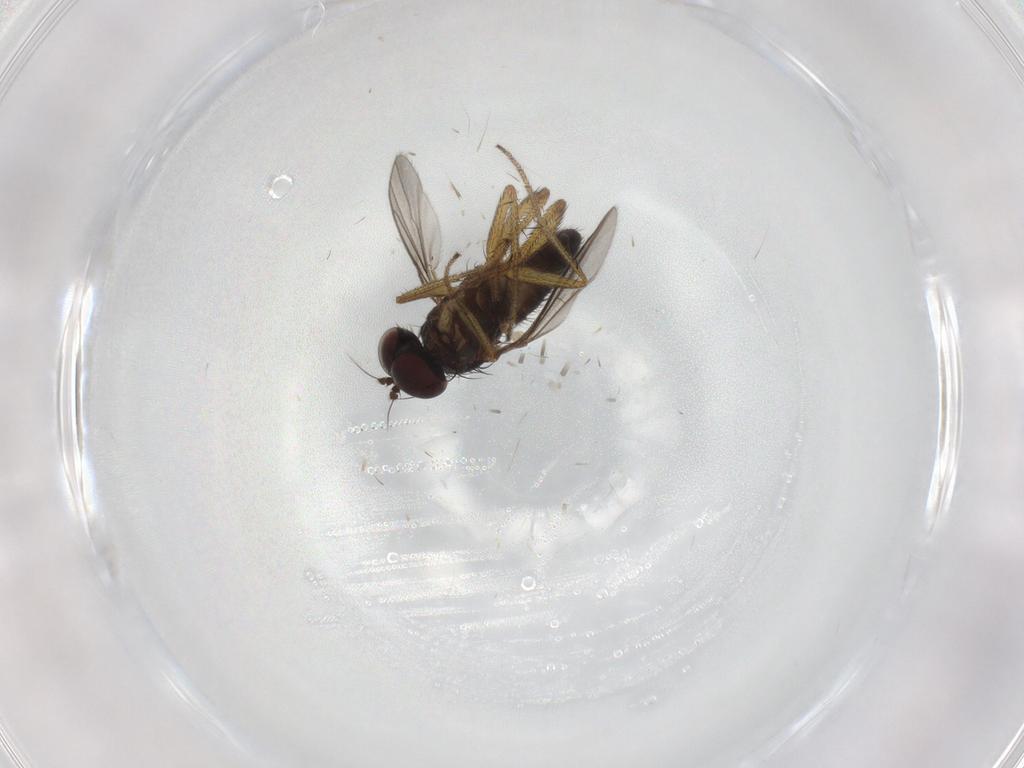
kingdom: Animalia
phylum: Arthropoda
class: Insecta
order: Diptera
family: Dolichopodidae
